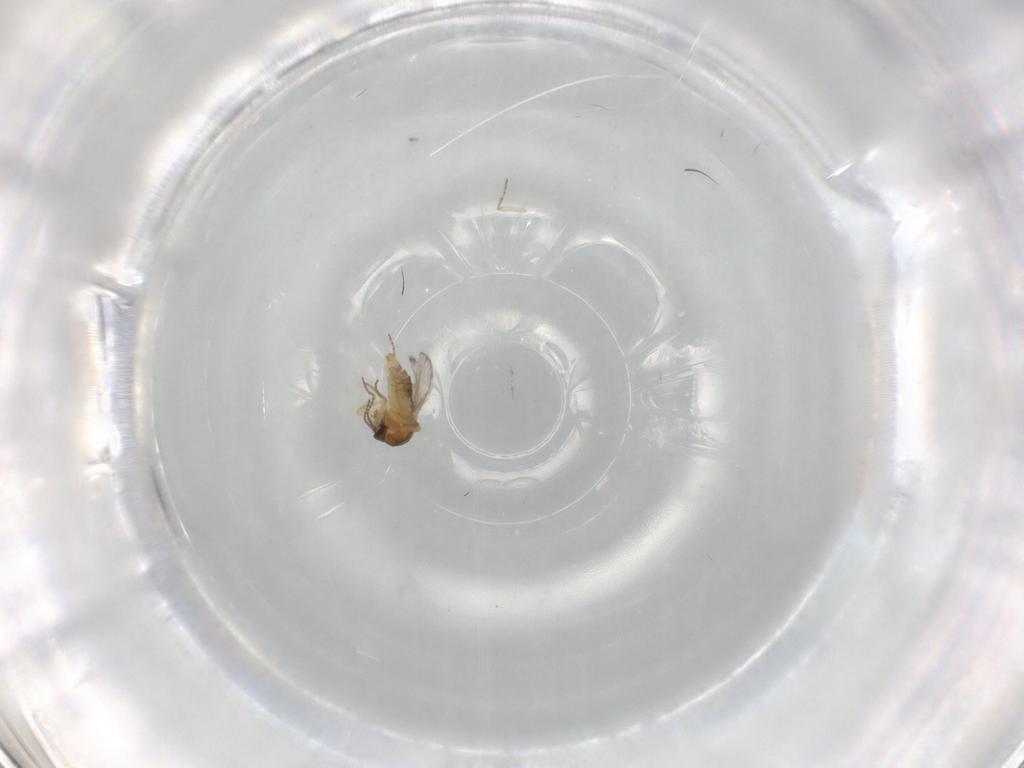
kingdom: Animalia
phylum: Arthropoda
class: Insecta
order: Diptera
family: Ceratopogonidae
